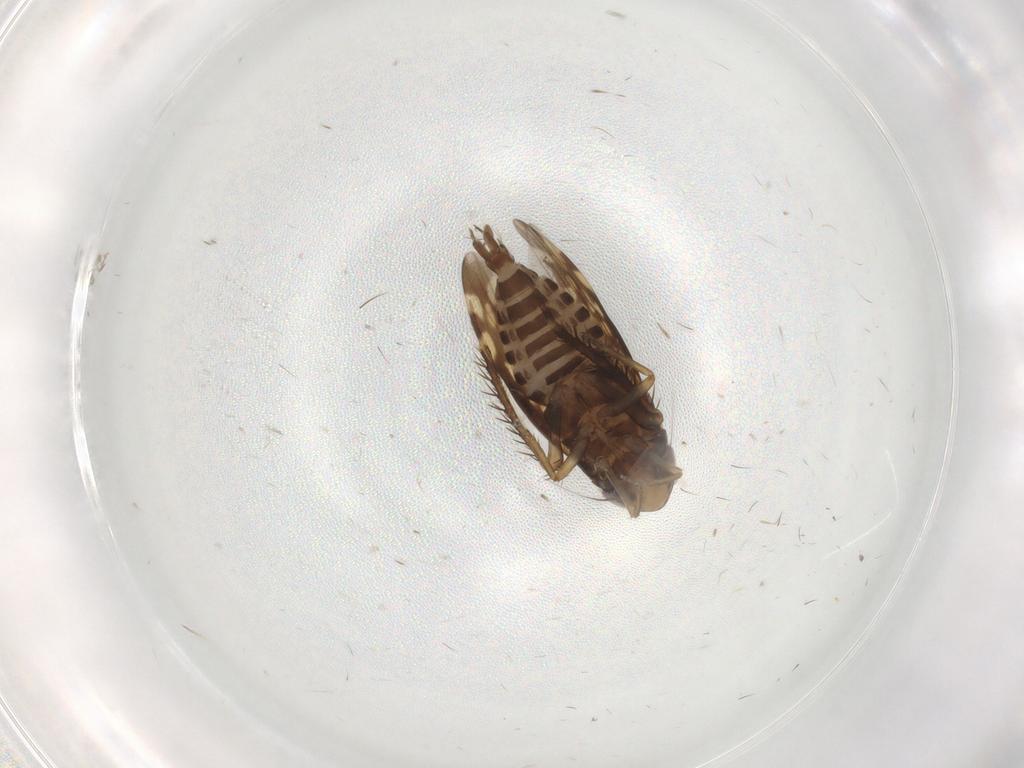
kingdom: Animalia
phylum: Arthropoda
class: Insecta
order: Hemiptera
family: Cicadellidae
